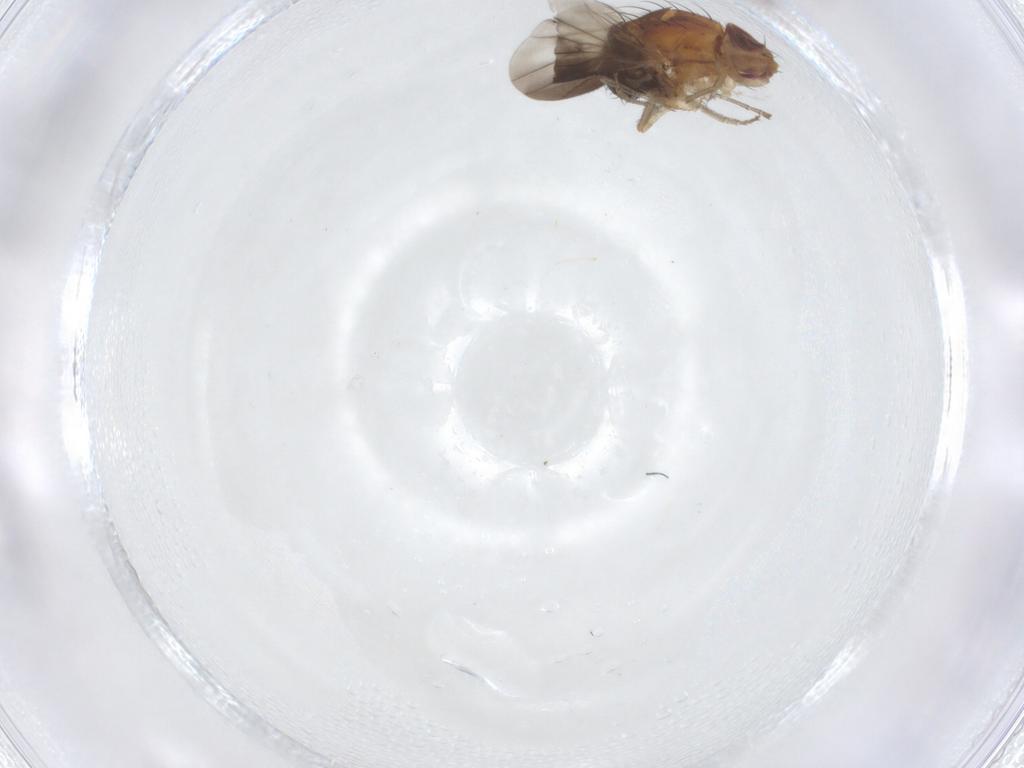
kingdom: Animalia
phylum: Arthropoda
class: Insecta
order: Diptera
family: Heleomyzidae
